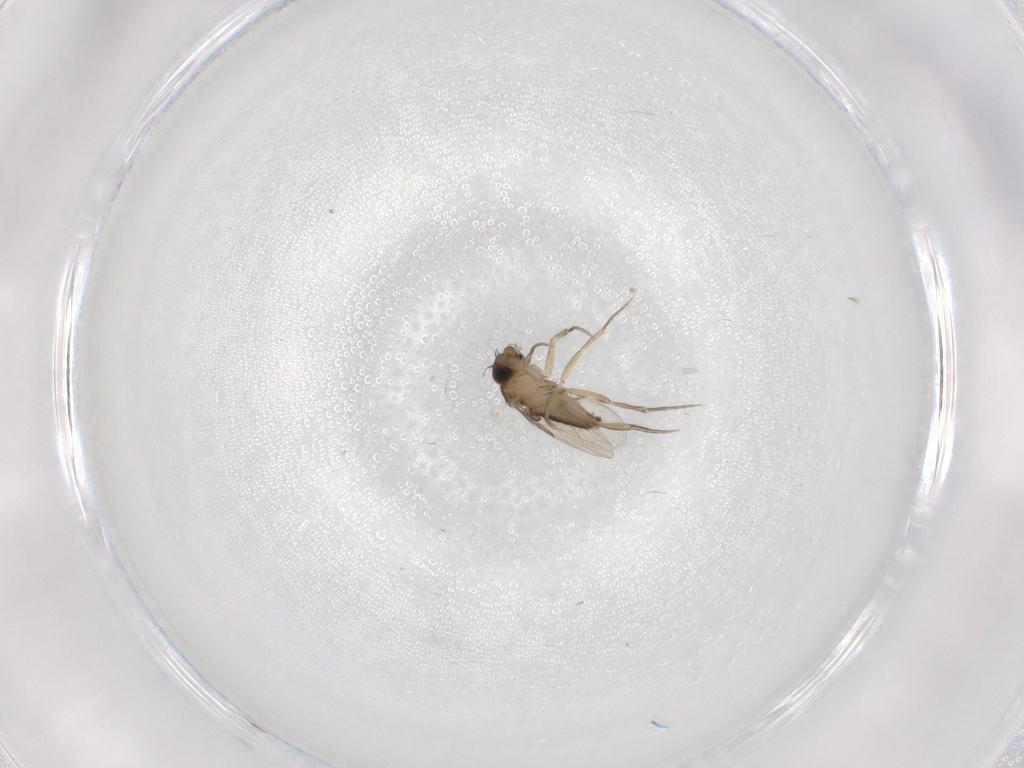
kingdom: Animalia
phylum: Arthropoda
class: Insecta
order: Diptera
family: Phoridae
